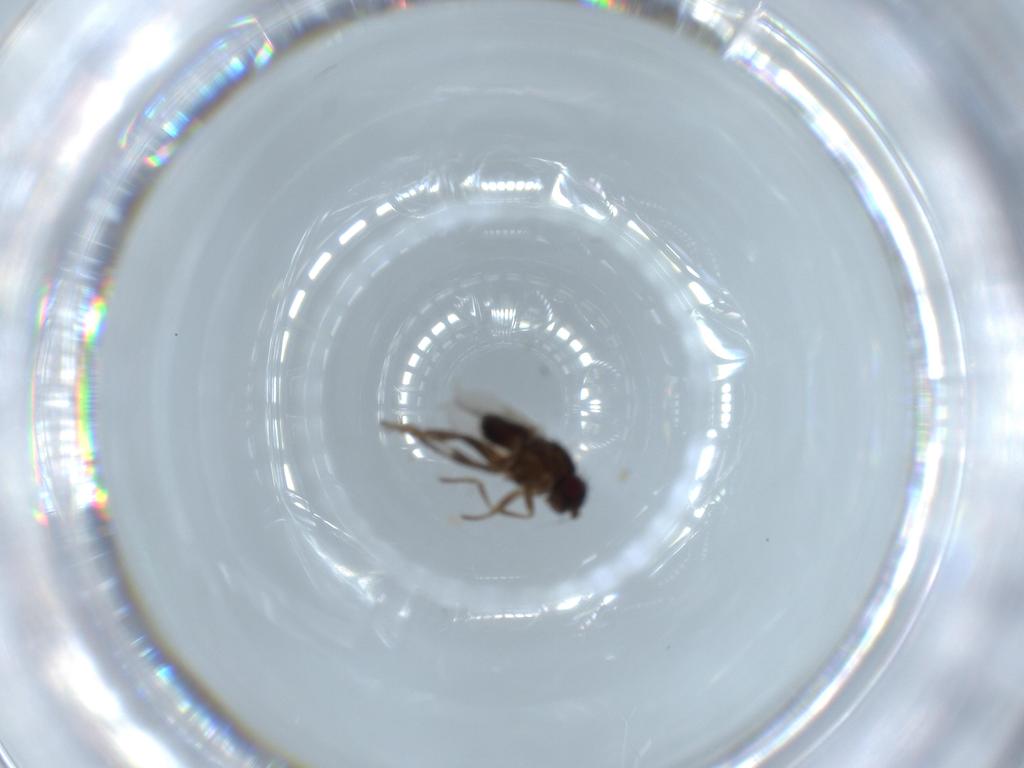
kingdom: Animalia
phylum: Arthropoda
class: Insecta
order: Diptera
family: Sphaeroceridae
